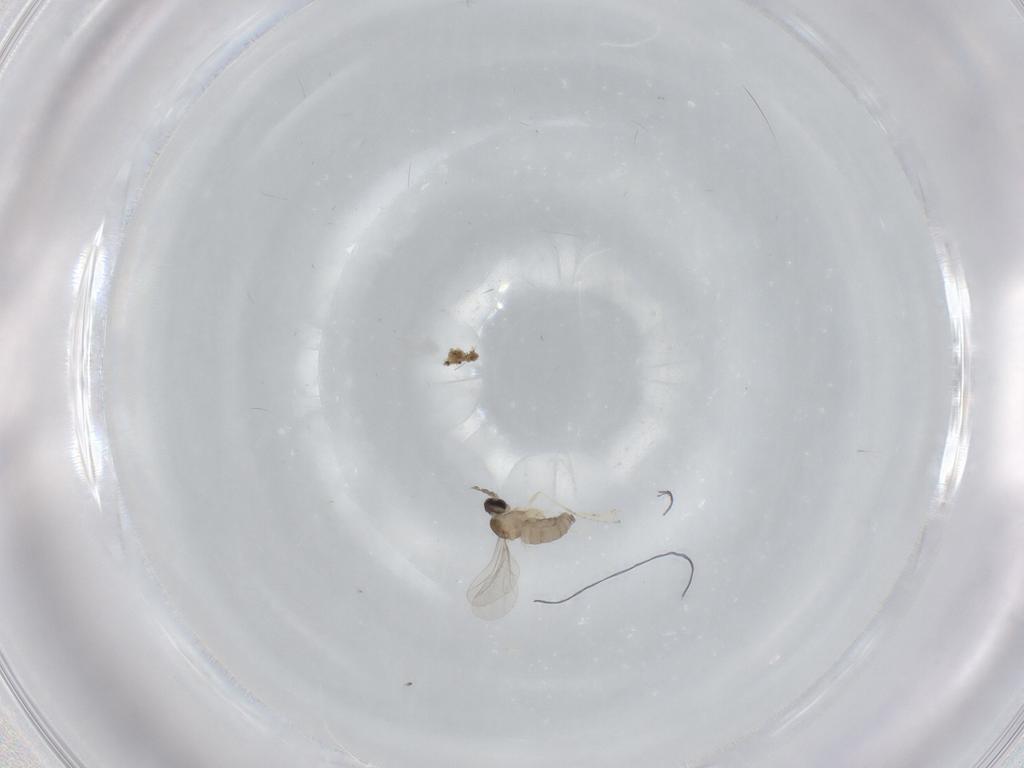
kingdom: Animalia
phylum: Arthropoda
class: Insecta
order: Diptera
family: Cecidomyiidae
